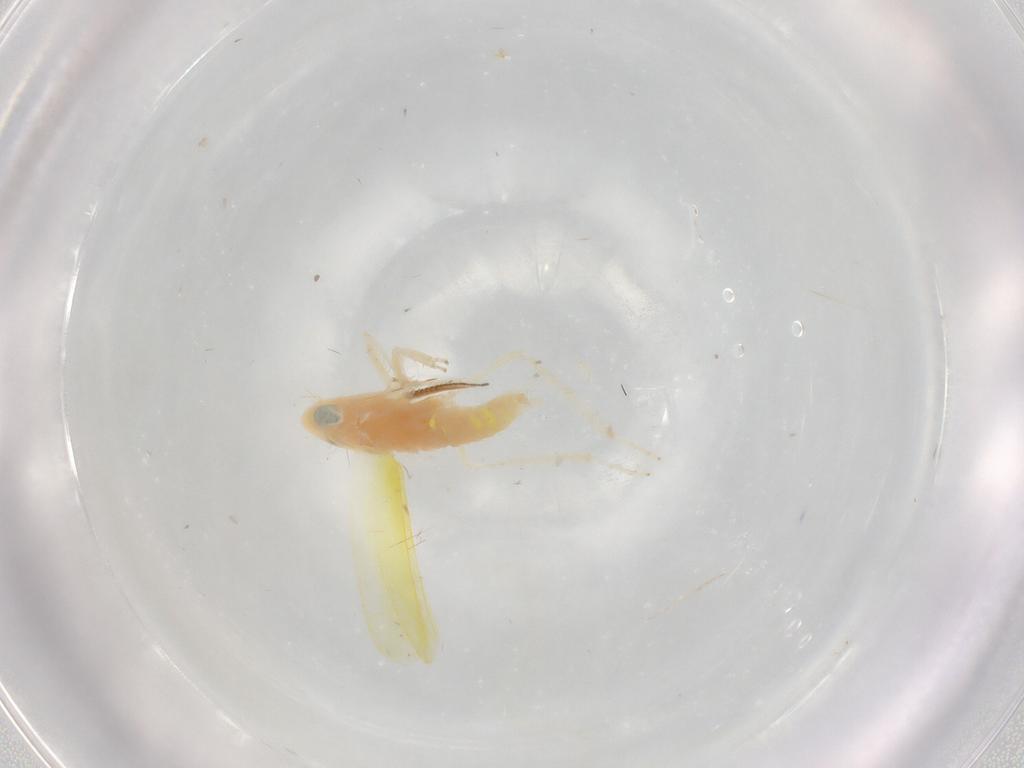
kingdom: Animalia
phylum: Arthropoda
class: Insecta
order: Hemiptera
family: Cicadellidae
